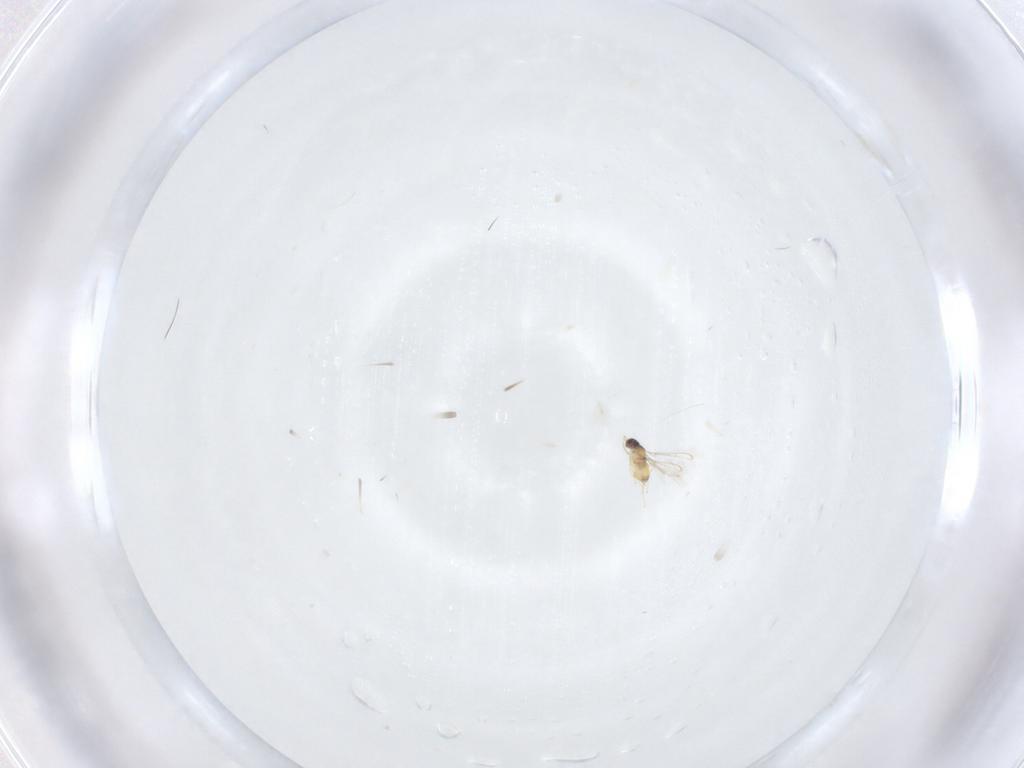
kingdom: Animalia
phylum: Arthropoda
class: Insecta
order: Hymenoptera
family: Mymaridae
